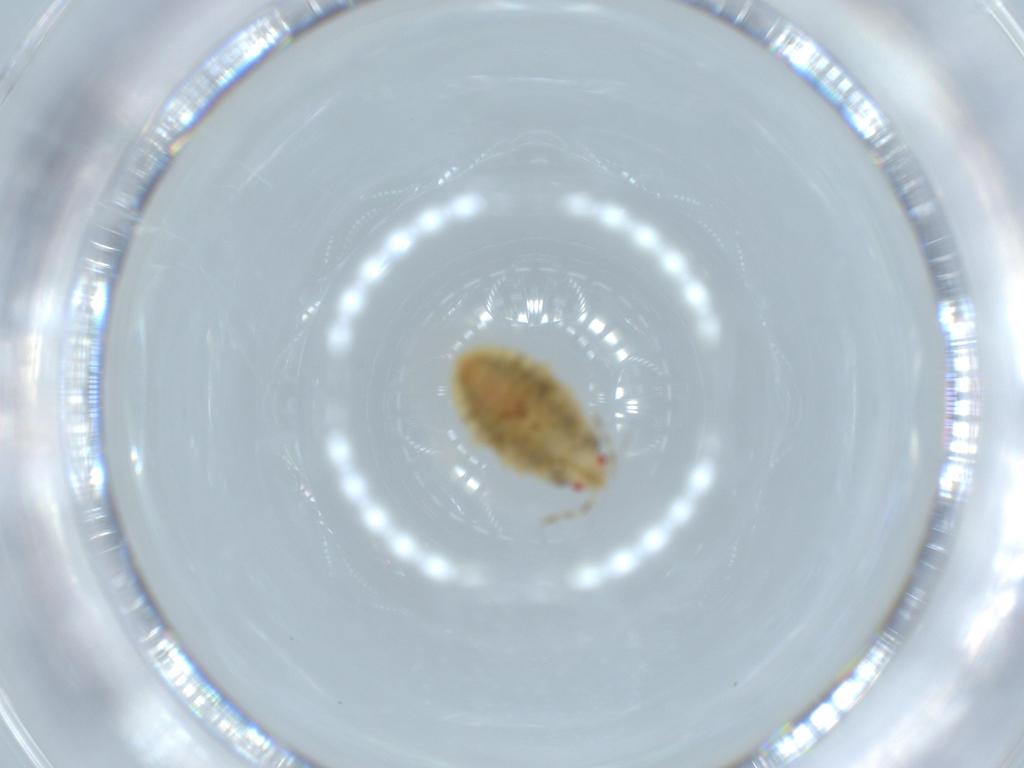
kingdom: Animalia
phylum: Arthropoda
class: Insecta
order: Hemiptera
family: Anthocoridae
